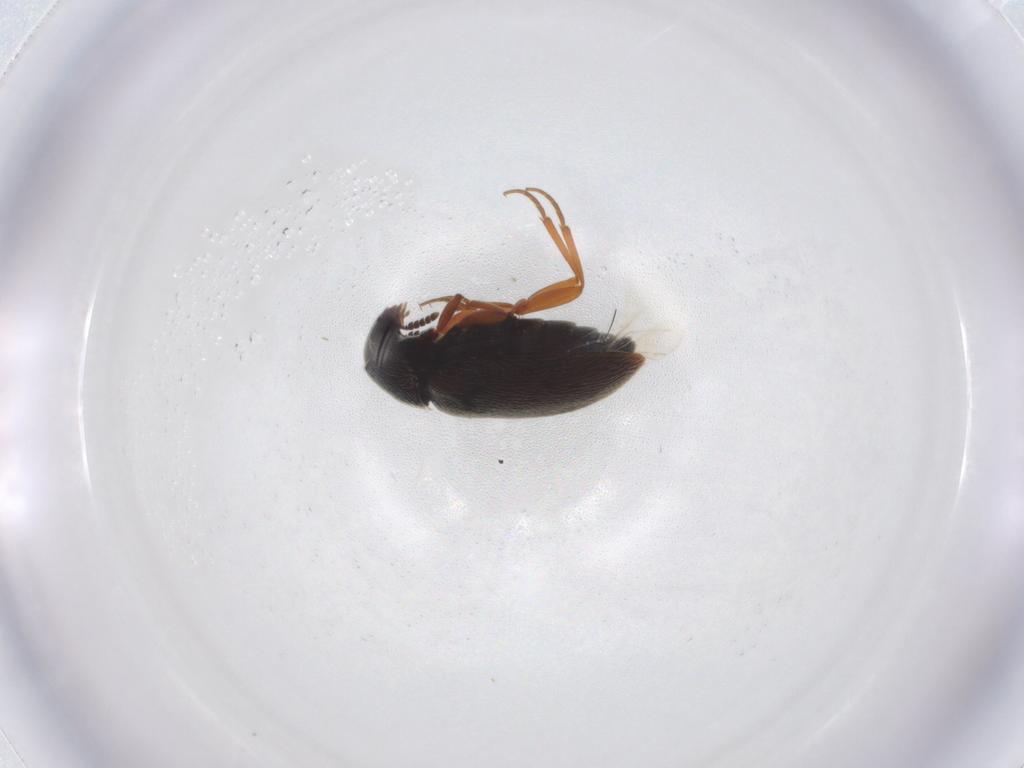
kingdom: Animalia
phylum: Arthropoda
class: Insecta
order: Coleoptera
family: Rhadalidae
